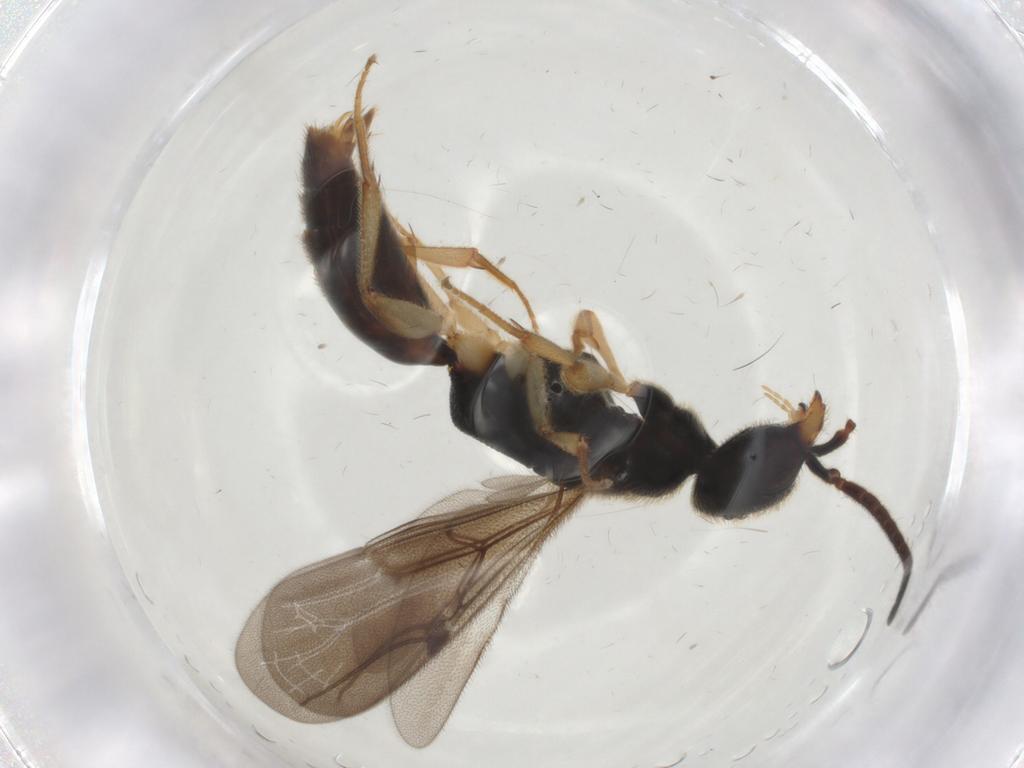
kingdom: Animalia
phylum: Arthropoda
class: Insecta
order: Hymenoptera
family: Bethylidae
